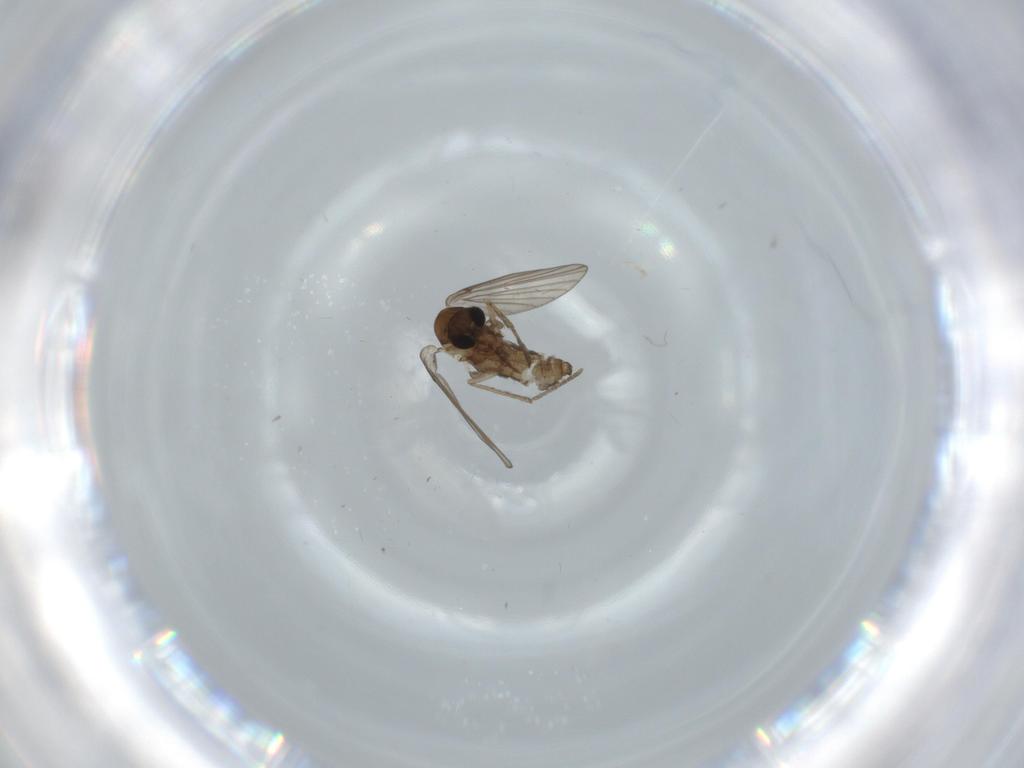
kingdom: Animalia
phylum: Arthropoda
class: Insecta
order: Diptera
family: Psychodidae
